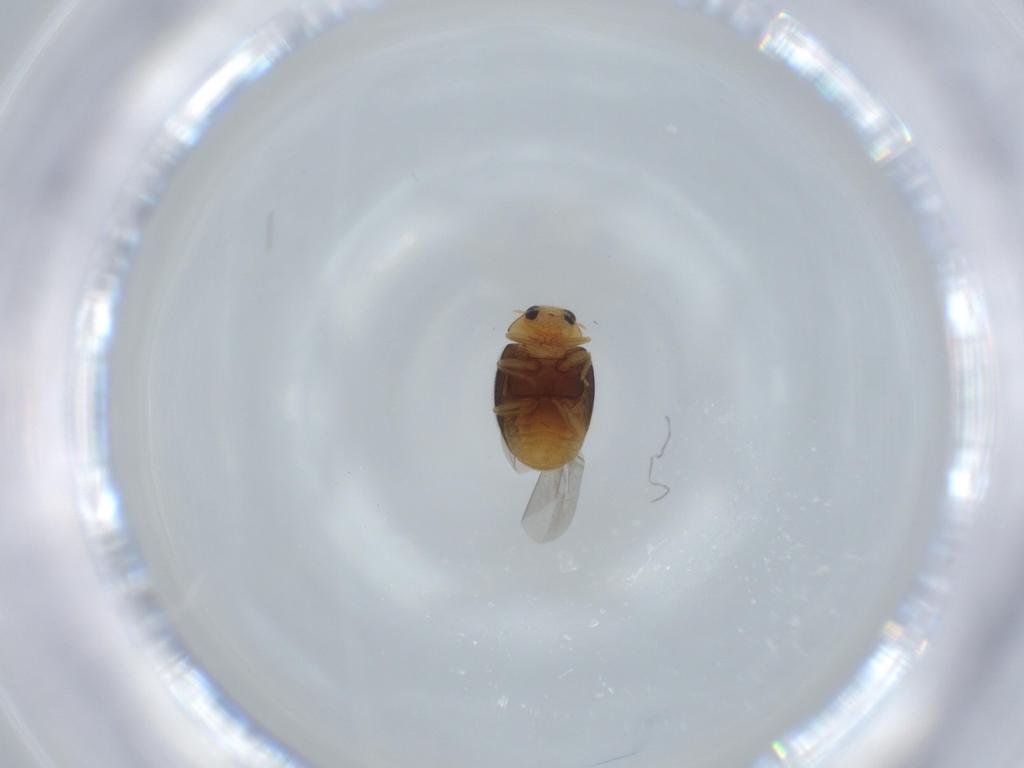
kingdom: Animalia
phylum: Arthropoda
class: Insecta
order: Coleoptera
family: Coccinellidae
